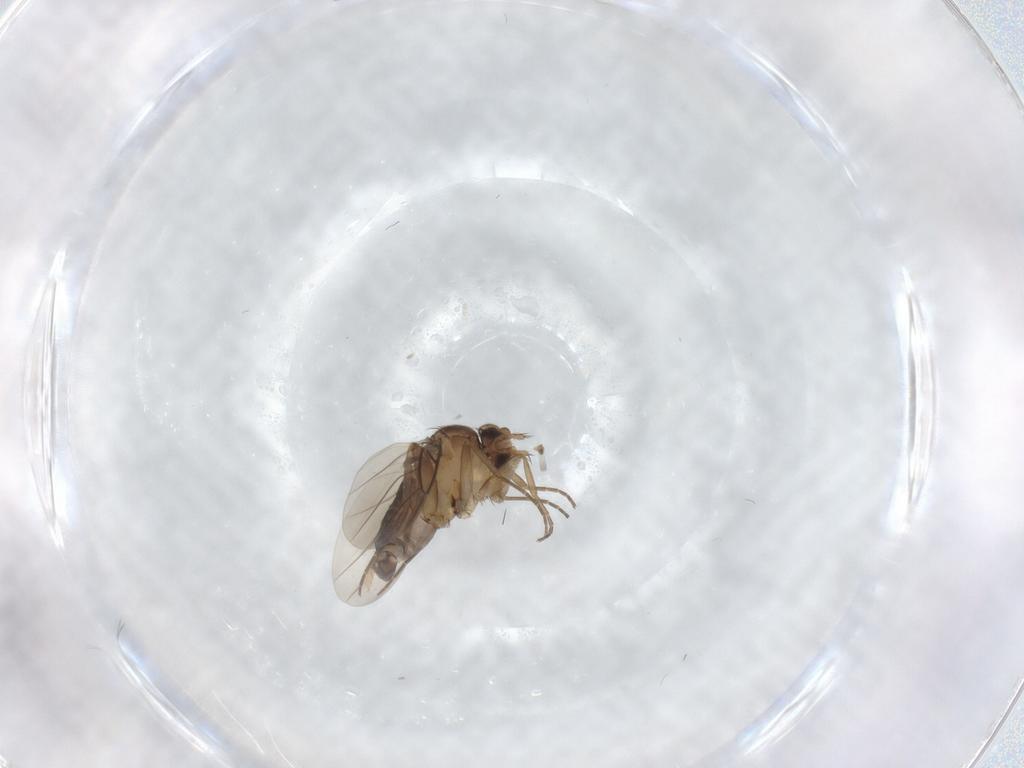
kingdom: Animalia
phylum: Arthropoda
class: Insecta
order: Diptera
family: Phoridae
